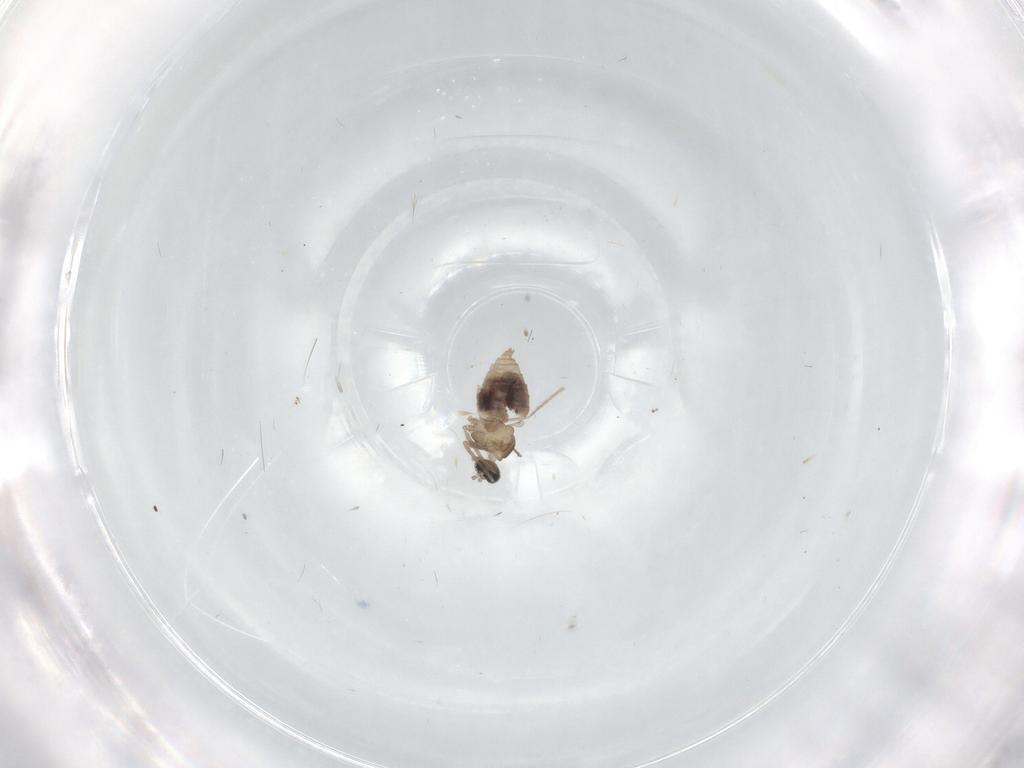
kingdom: Animalia
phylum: Arthropoda
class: Insecta
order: Diptera
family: Cecidomyiidae
